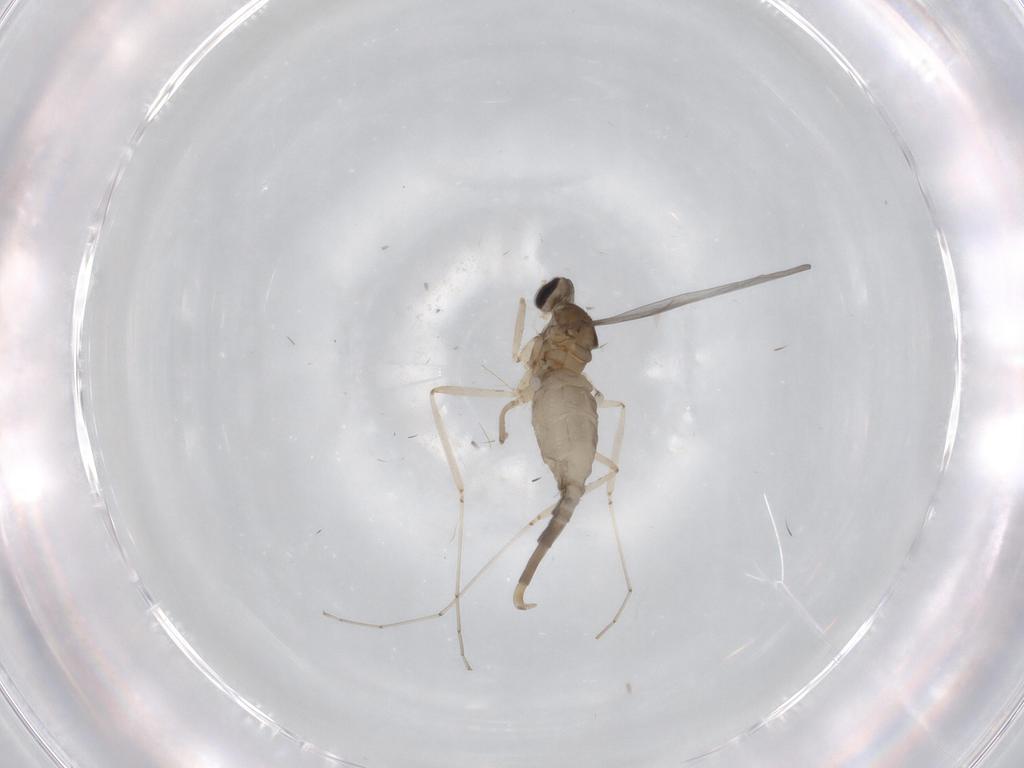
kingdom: Animalia
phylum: Arthropoda
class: Insecta
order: Diptera
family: Cecidomyiidae
